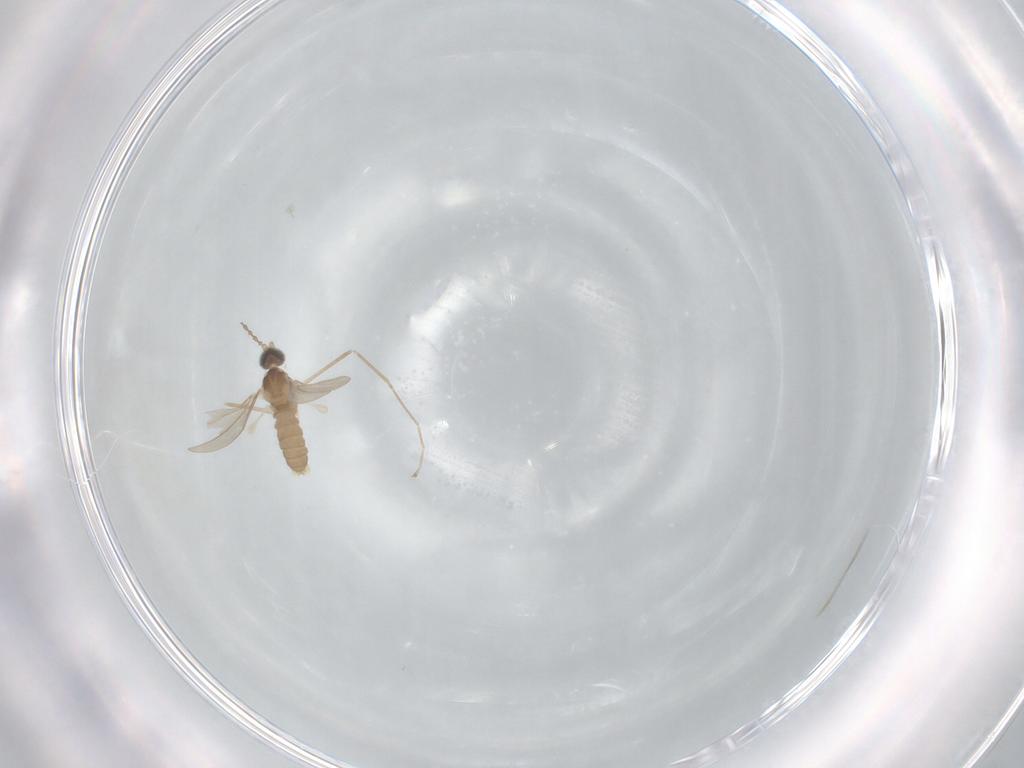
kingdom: Animalia
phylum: Arthropoda
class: Insecta
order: Diptera
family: Cecidomyiidae
